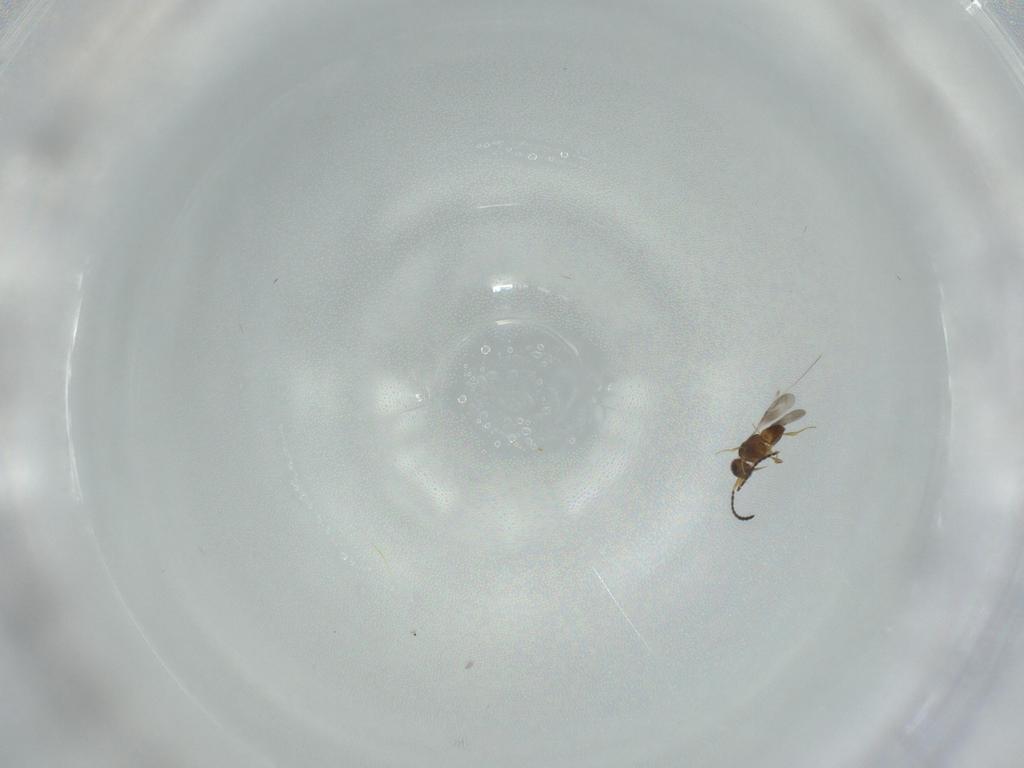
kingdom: Animalia
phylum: Arthropoda
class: Insecta
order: Hymenoptera
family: Ceraphronidae
